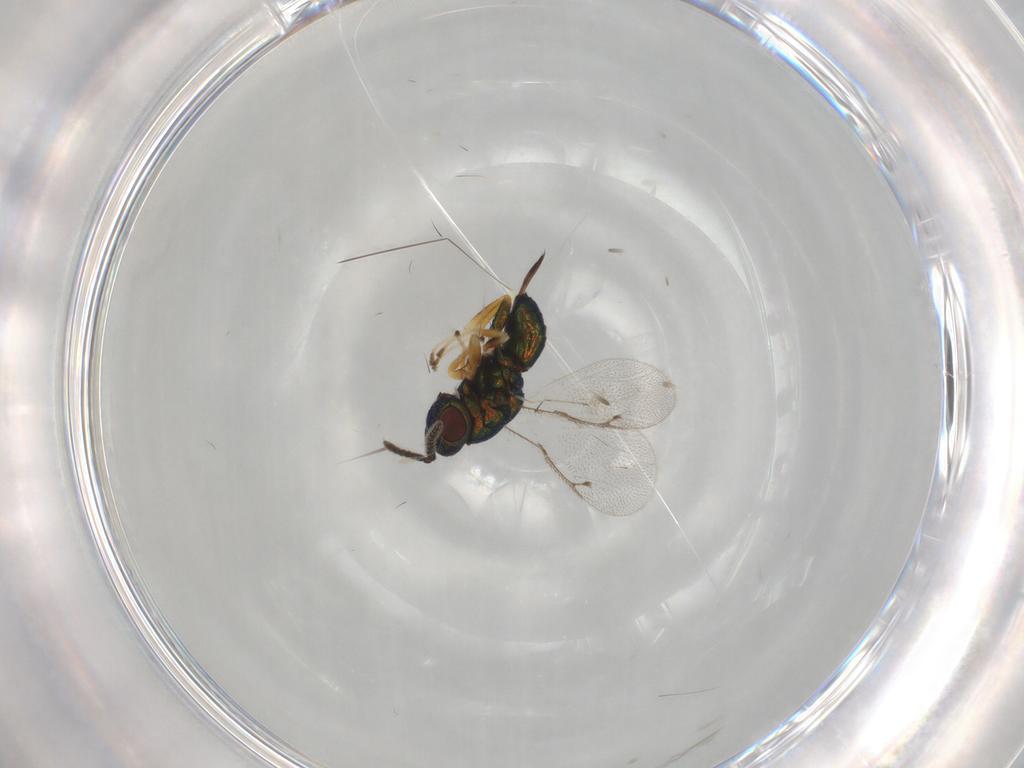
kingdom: Animalia
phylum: Arthropoda
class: Insecta
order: Hymenoptera
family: Pteromalidae
